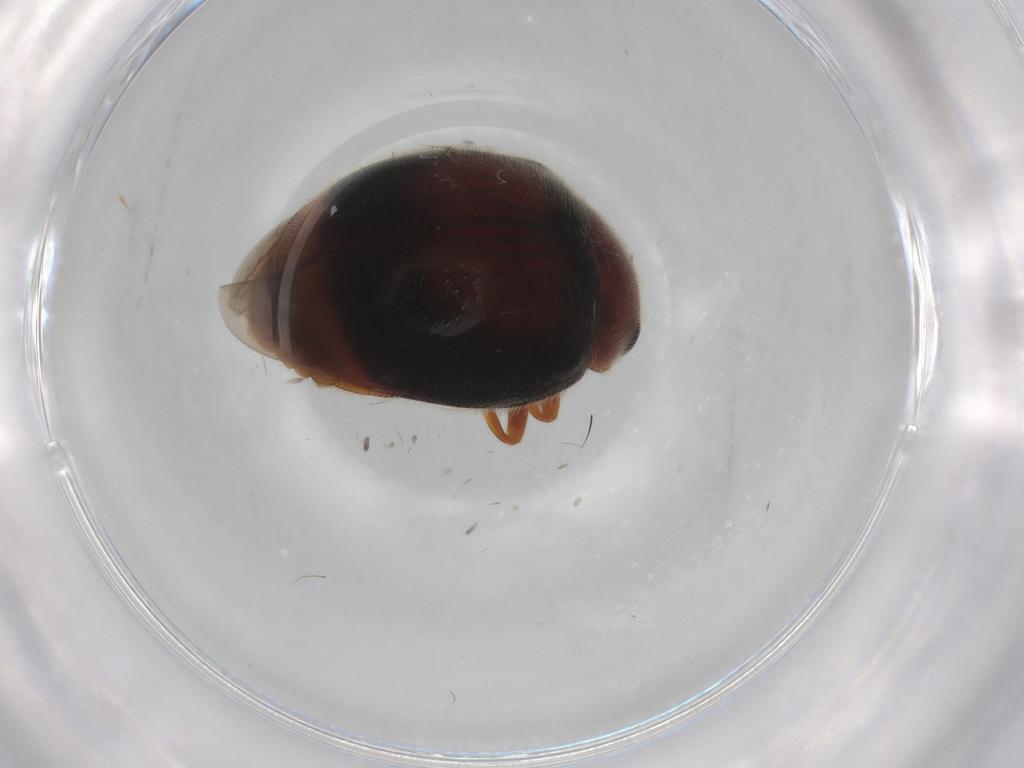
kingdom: Animalia
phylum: Arthropoda
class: Insecta
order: Coleoptera
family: Coccinellidae
